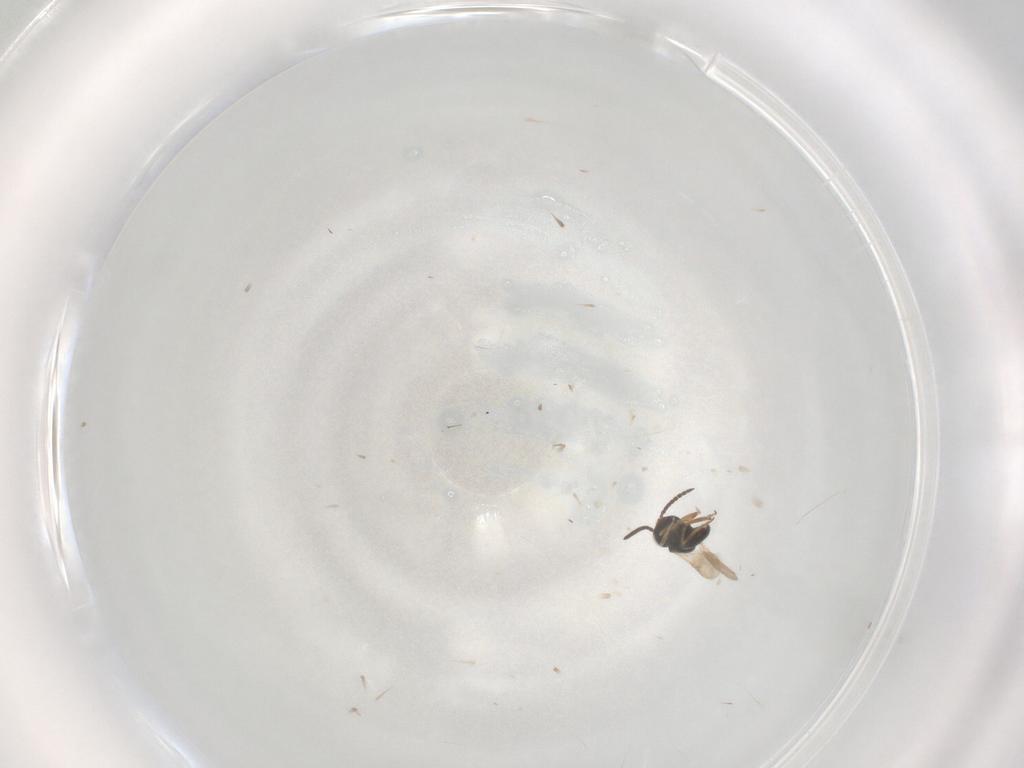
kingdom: Animalia
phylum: Arthropoda
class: Insecta
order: Hymenoptera
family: Scelionidae
